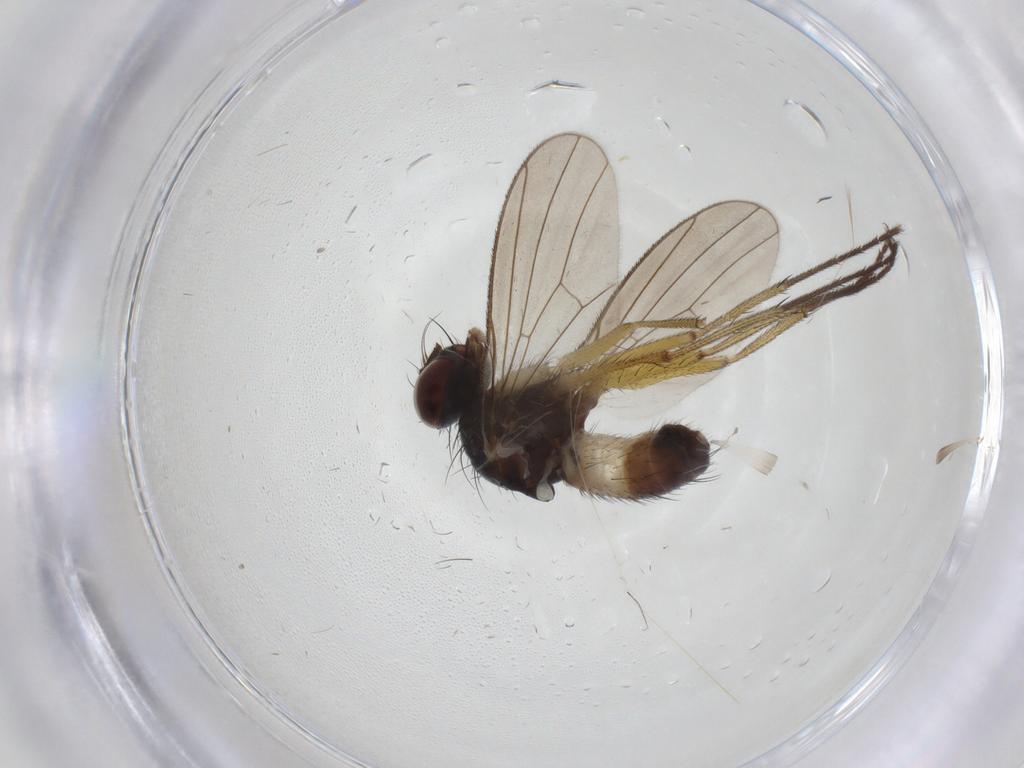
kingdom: Animalia
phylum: Arthropoda
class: Insecta
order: Diptera
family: Muscidae
